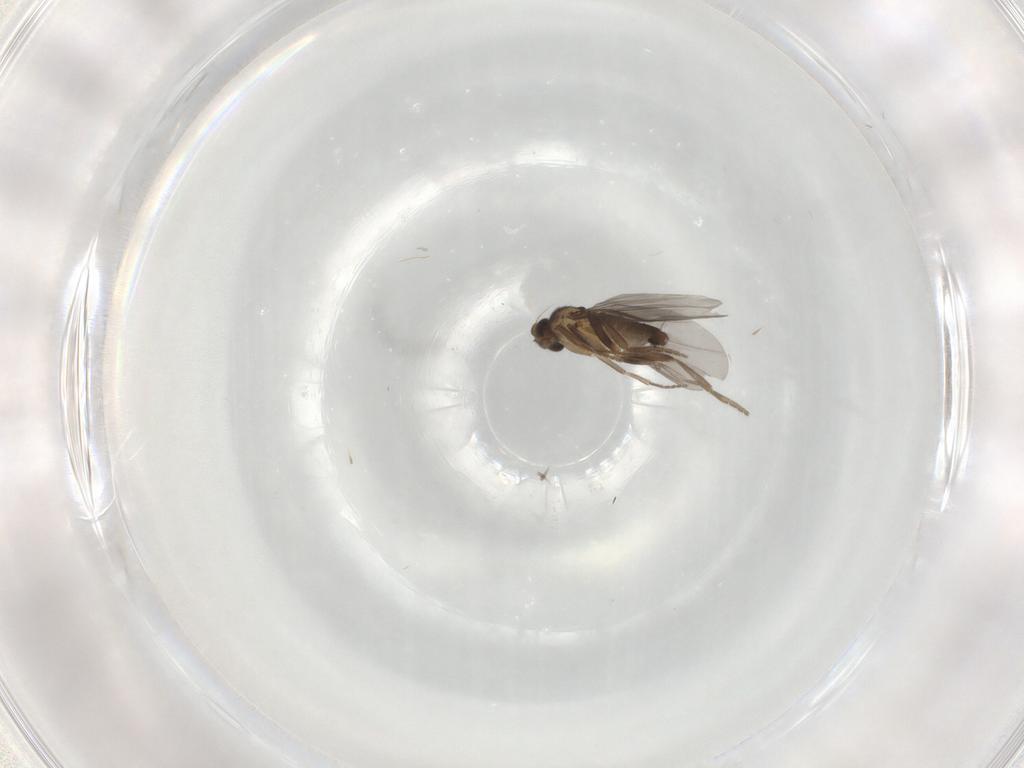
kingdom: Animalia
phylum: Arthropoda
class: Insecta
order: Diptera
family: Phoridae
